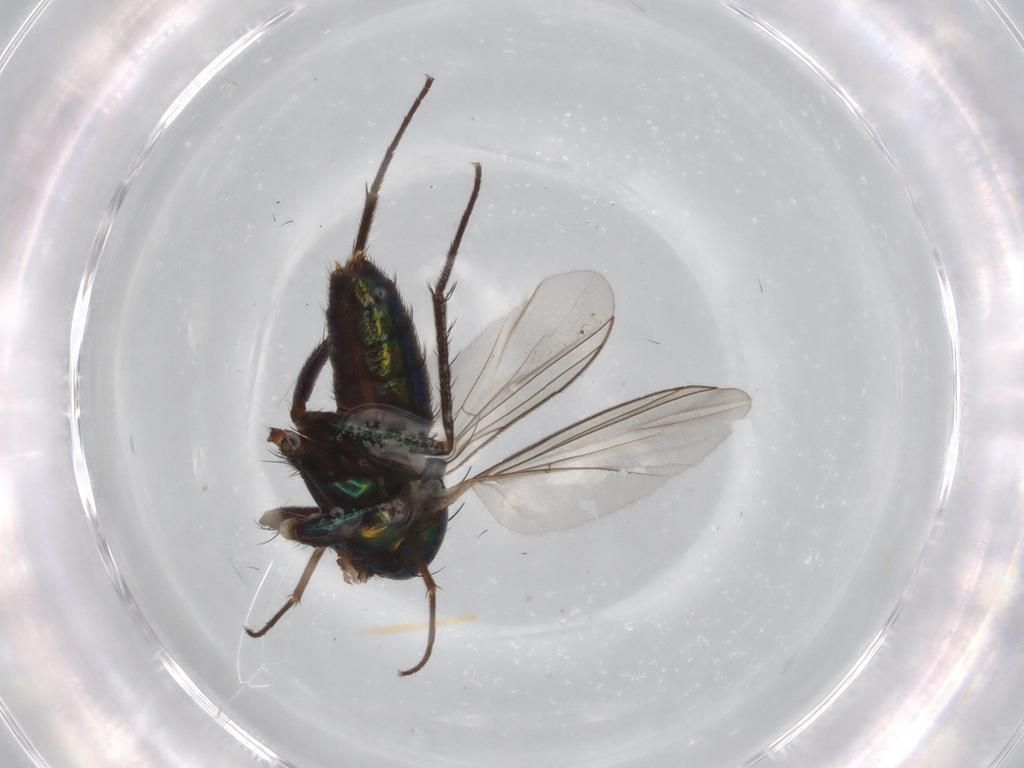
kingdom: Animalia
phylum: Arthropoda
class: Insecta
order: Diptera
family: Dolichopodidae
